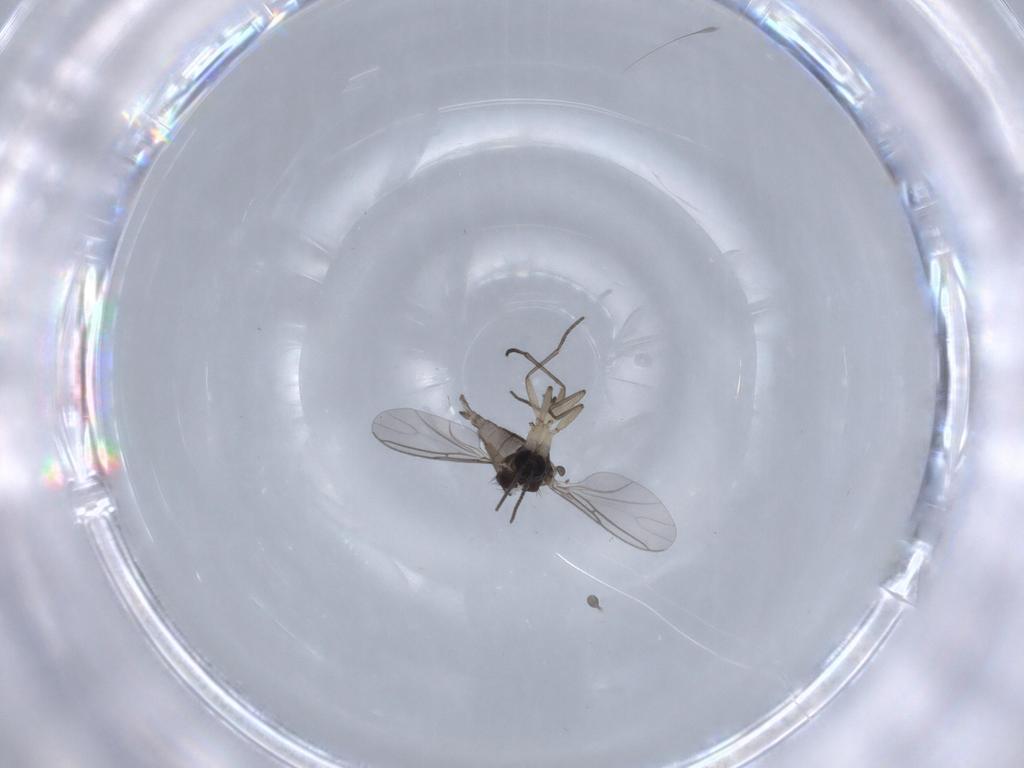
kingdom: Animalia
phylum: Arthropoda
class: Insecta
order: Diptera
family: Sciaridae
